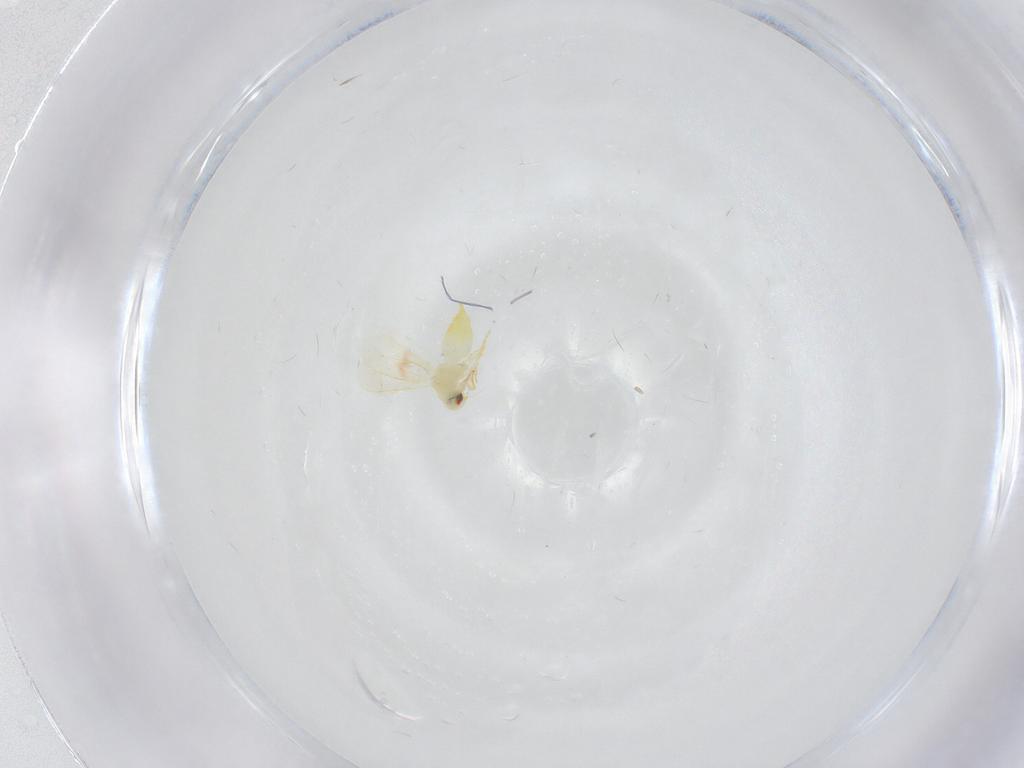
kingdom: Animalia
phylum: Arthropoda
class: Insecta
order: Hemiptera
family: Aleyrodidae
